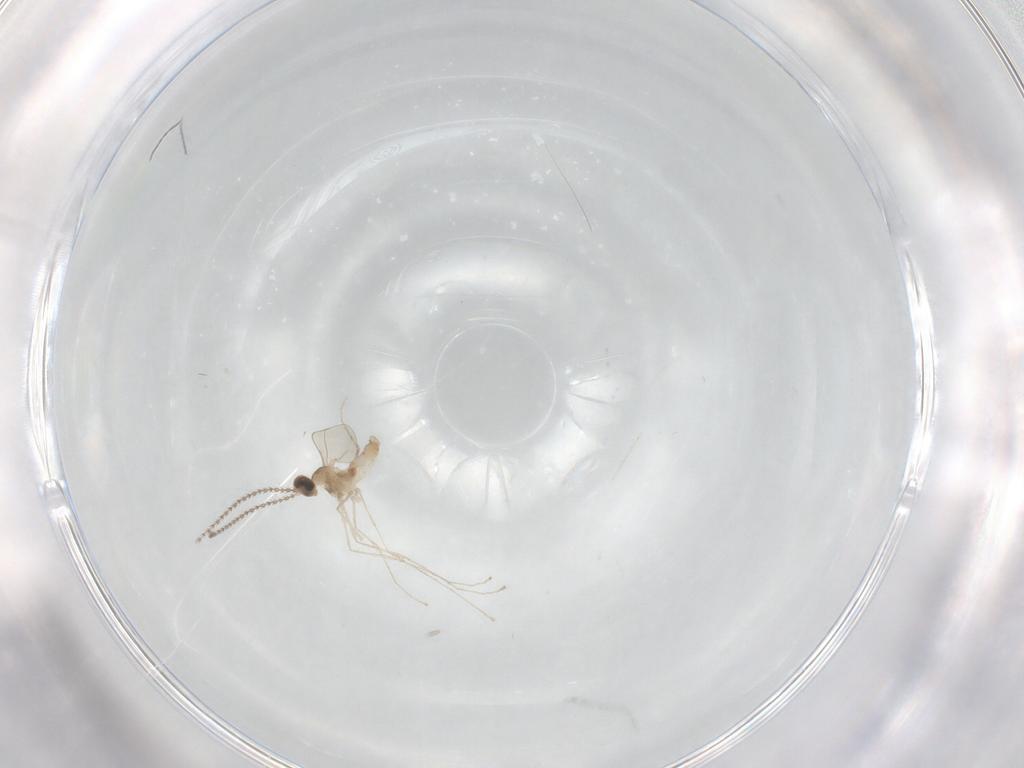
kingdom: Animalia
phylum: Arthropoda
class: Insecta
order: Diptera
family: Cecidomyiidae
